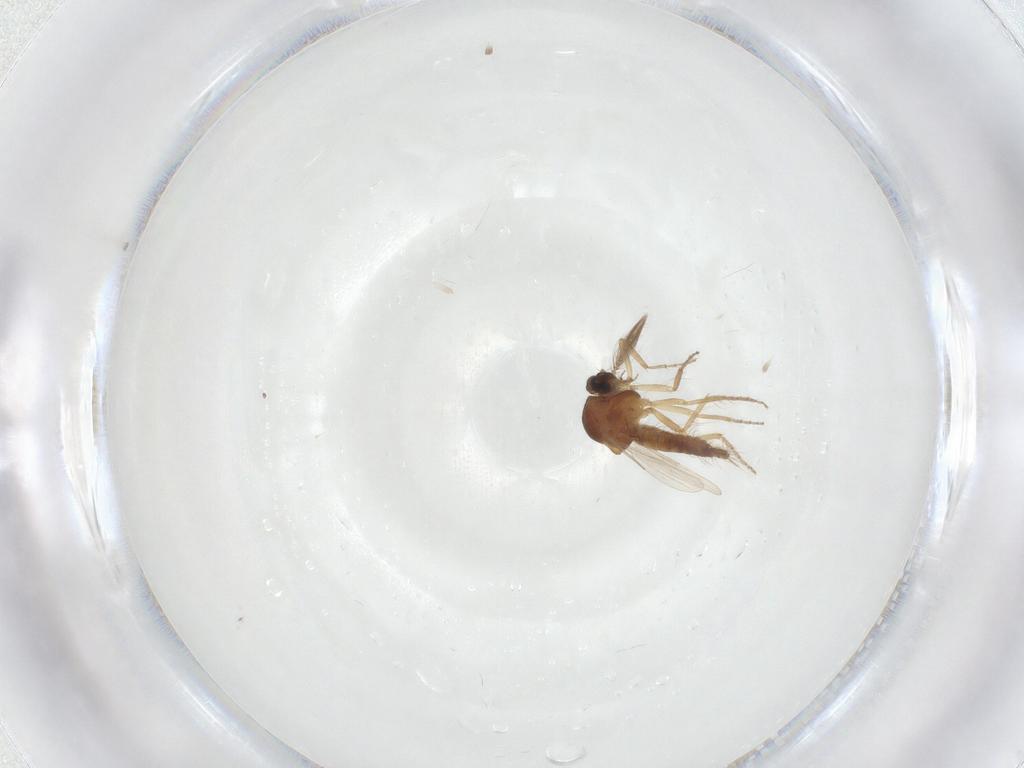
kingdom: Animalia
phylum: Arthropoda
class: Insecta
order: Diptera
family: Ceratopogonidae
